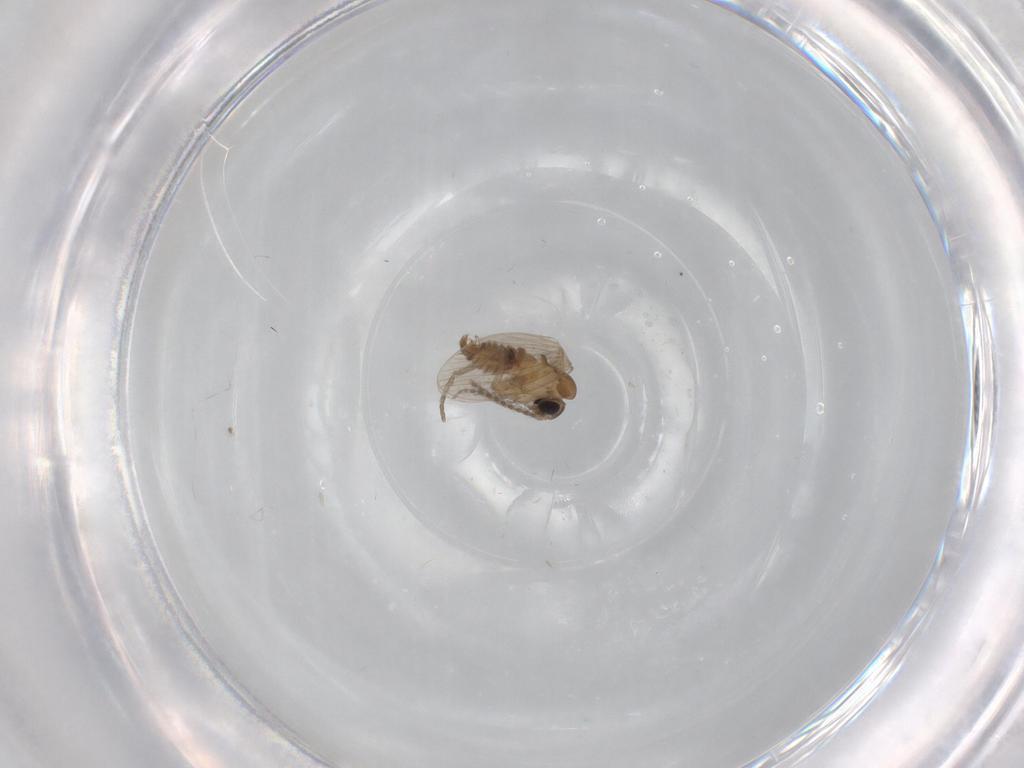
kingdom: Animalia
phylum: Arthropoda
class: Insecta
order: Diptera
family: Psychodidae
